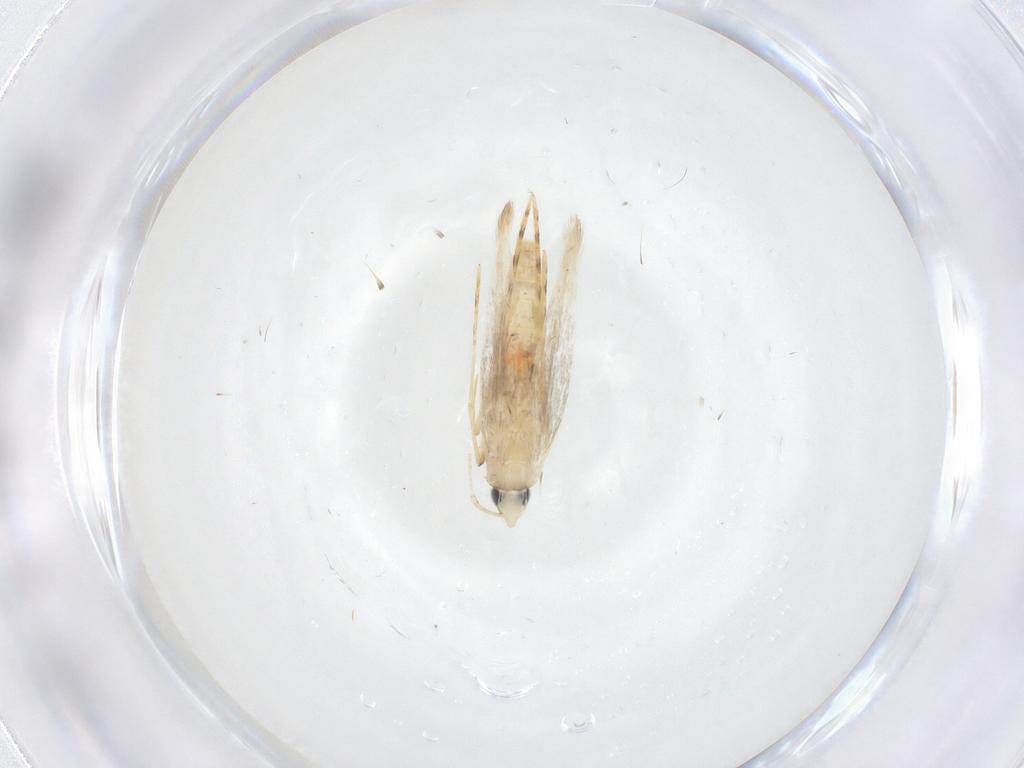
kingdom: Animalia
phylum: Arthropoda
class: Insecta
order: Lepidoptera
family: Tineidae
